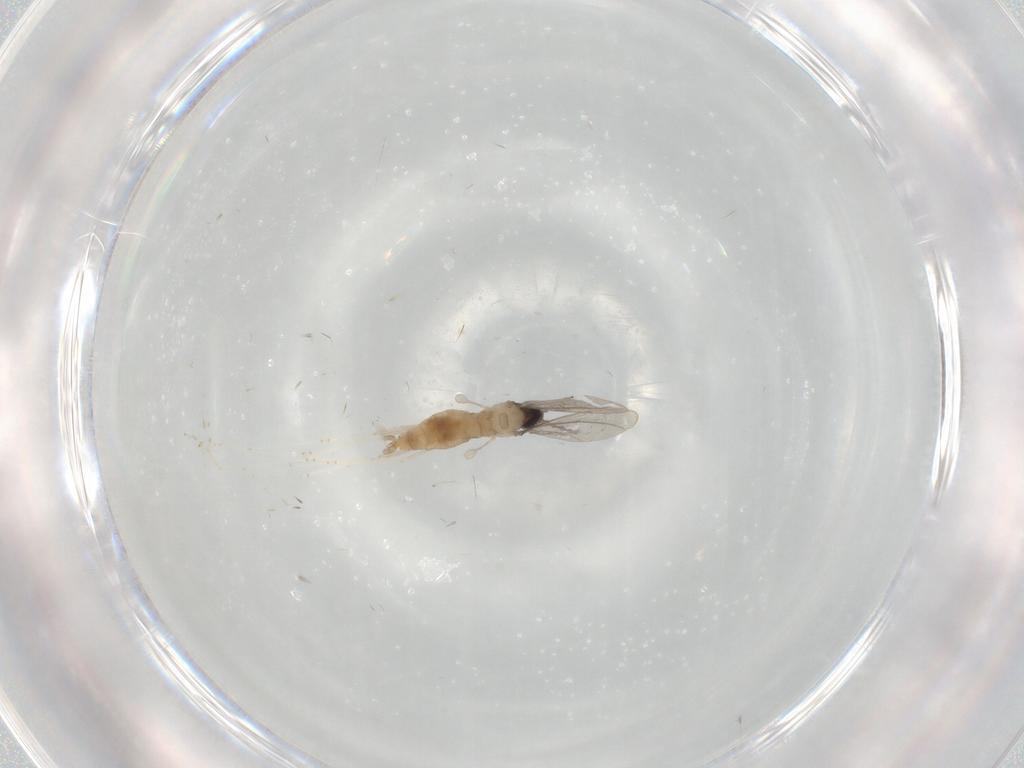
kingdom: Animalia
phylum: Arthropoda
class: Insecta
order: Diptera
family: Cecidomyiidae
